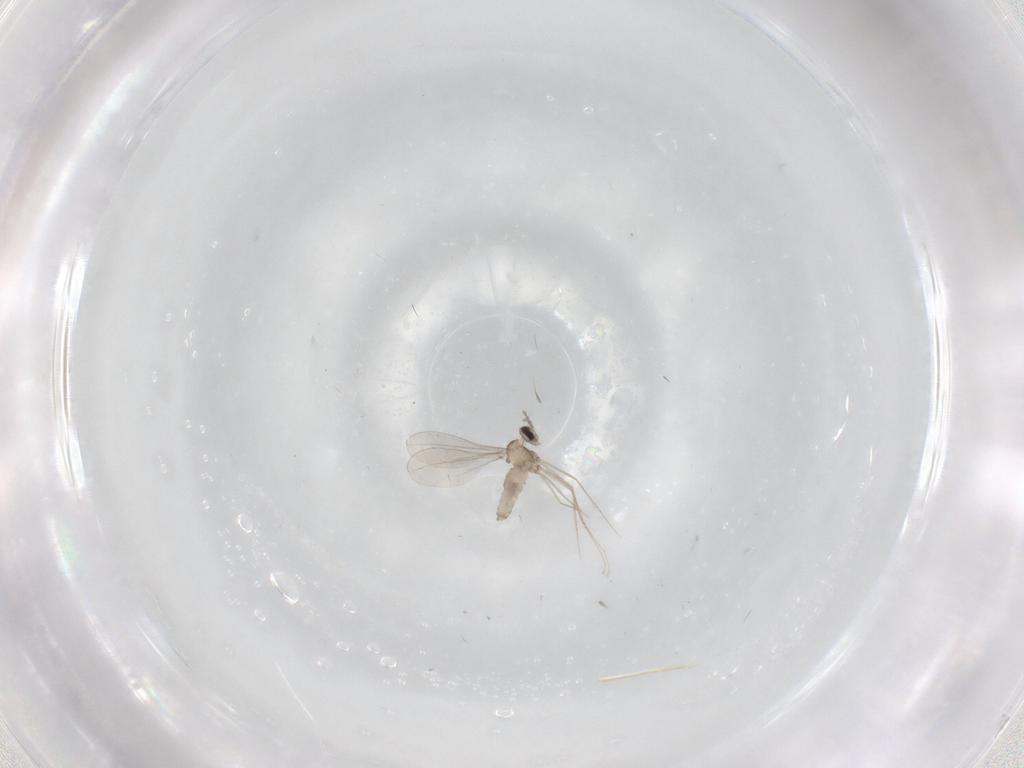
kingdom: Animalia
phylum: Arthropoda
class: Insecta
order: Diptera
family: Cecidomyiidae
